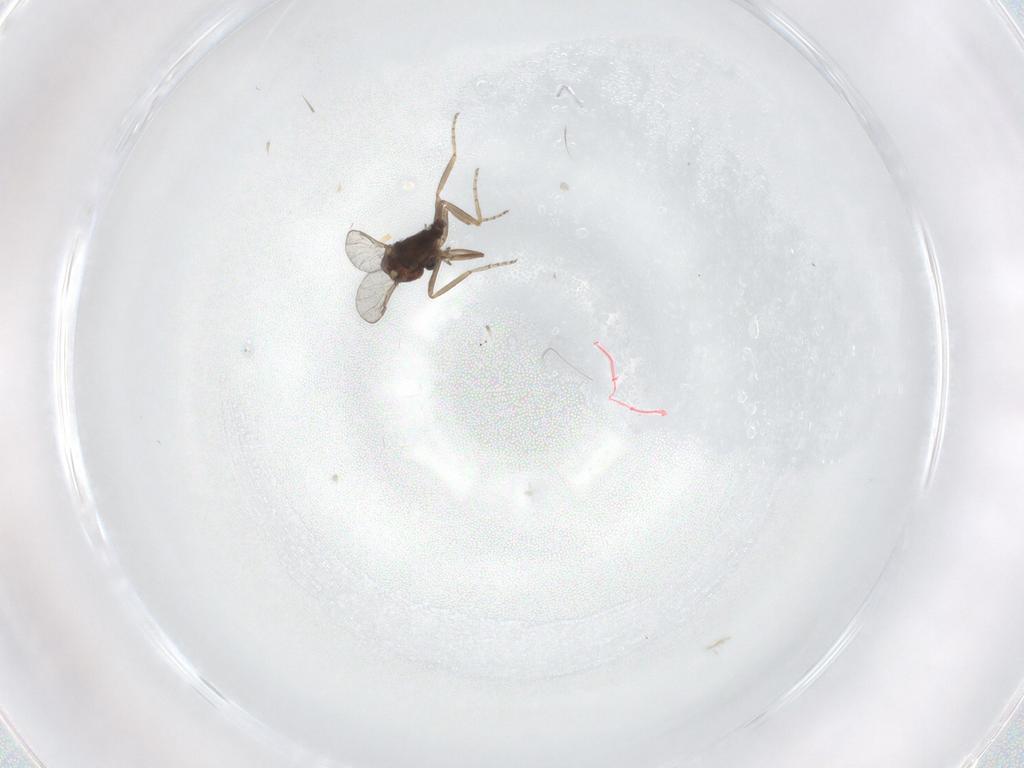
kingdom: Animalia
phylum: Arthropoda
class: Insecta
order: Diptera
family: Ceratopogonidae
